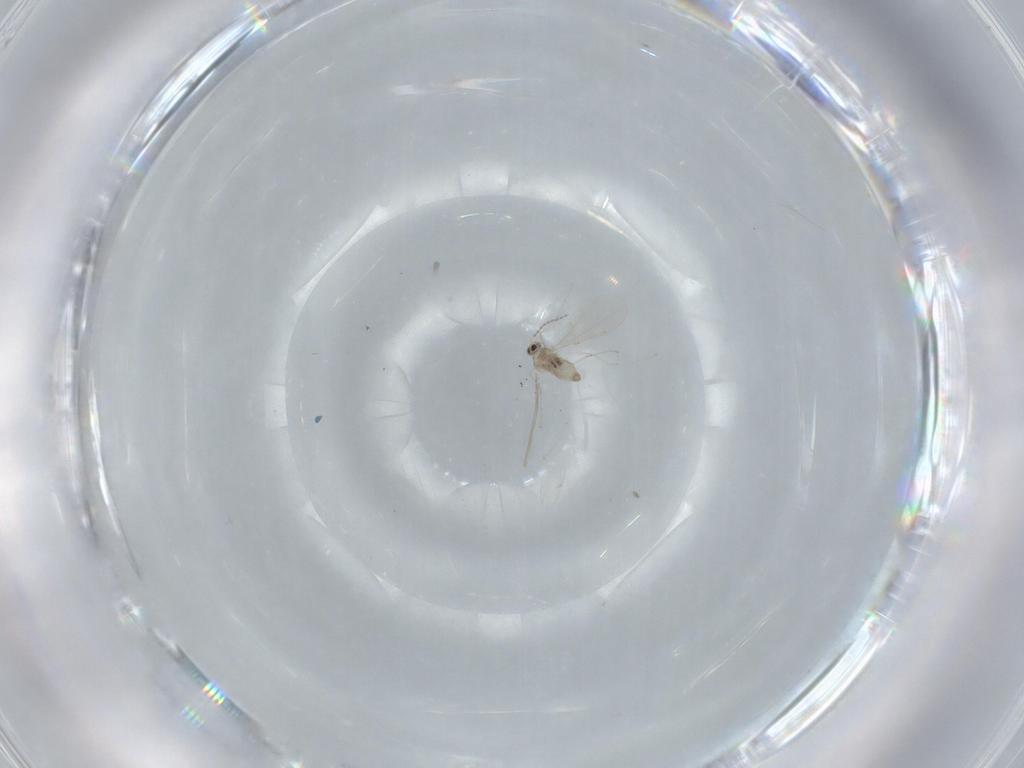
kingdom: Animalia
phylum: Arthropoda
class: Insecta
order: Diptera
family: Cecidomyiidae
